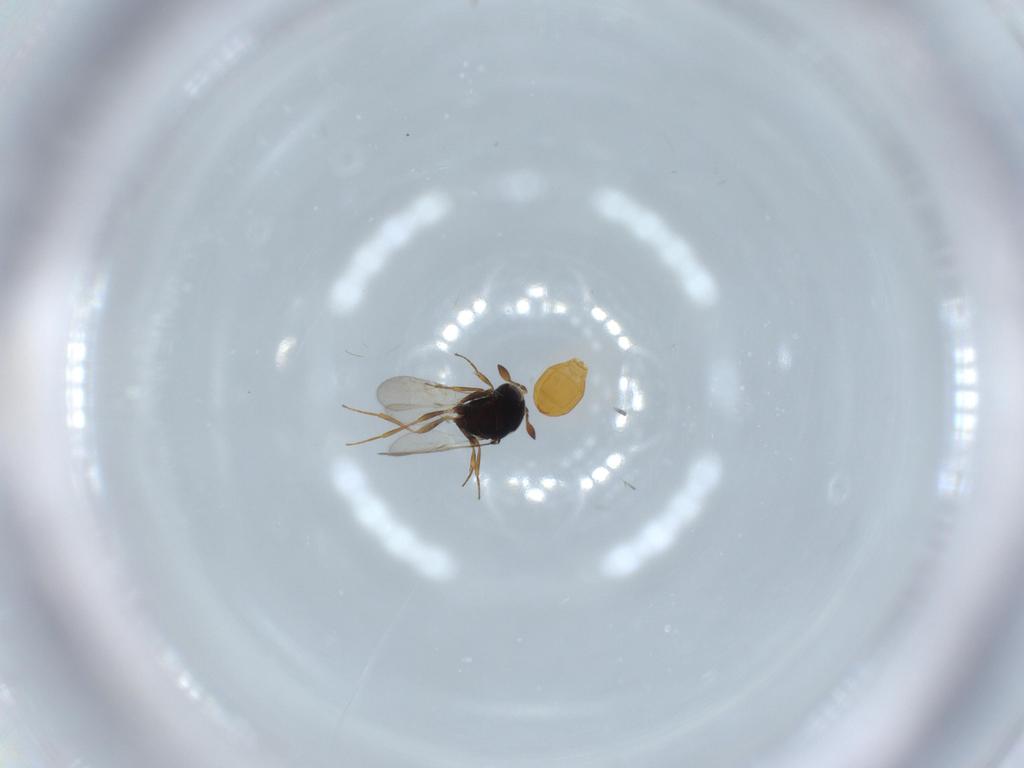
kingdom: Animalia
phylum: Arthropoda
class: Insecta
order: Hymenoptera
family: Scelionidae
